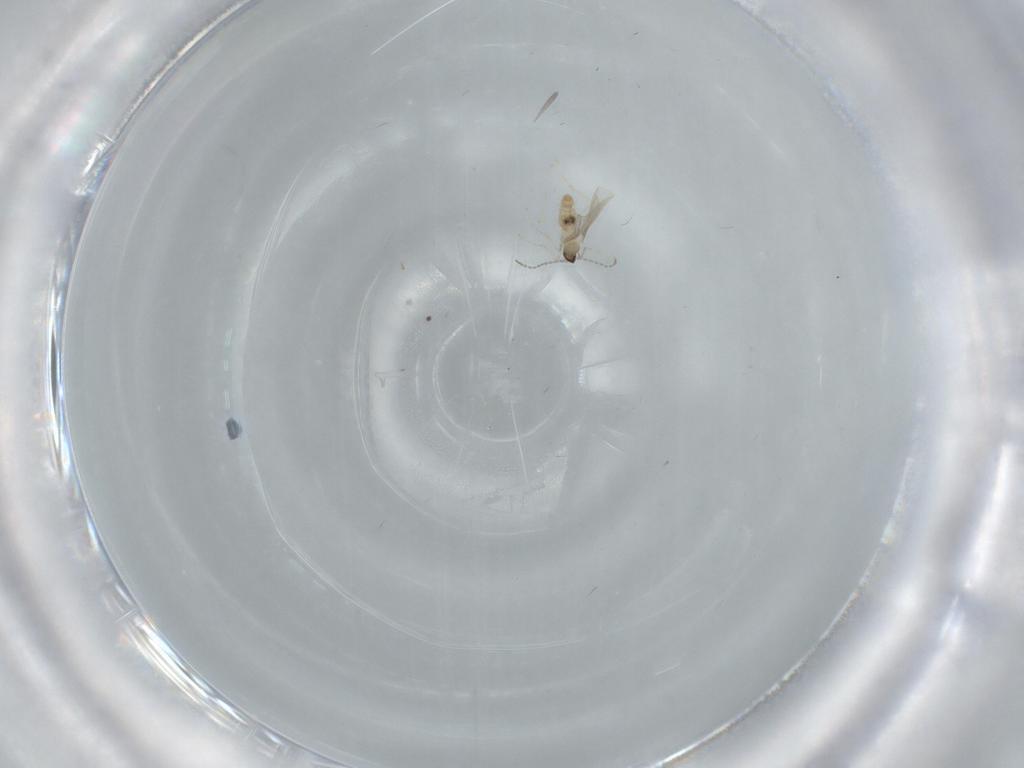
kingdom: Animalia
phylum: Arthropoda
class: Insecta
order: Diptera
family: Cecidomyiidae
